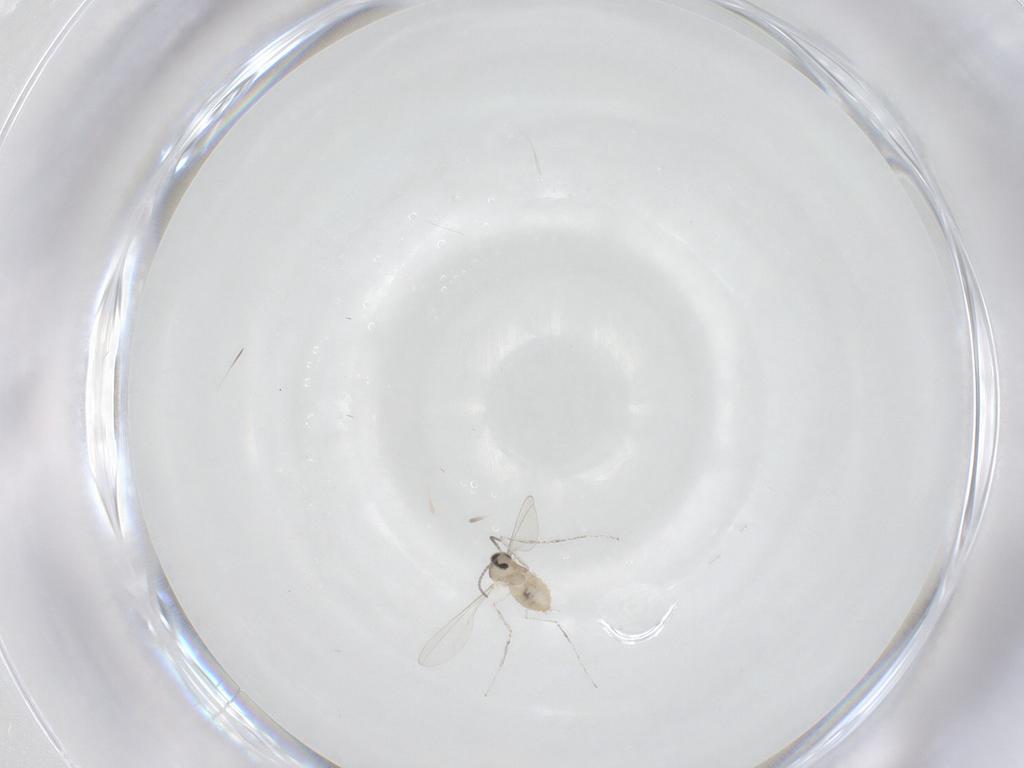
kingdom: Animalia
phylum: Arthropoda
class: Insecta
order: Diptera
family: Cecidomyiidae
